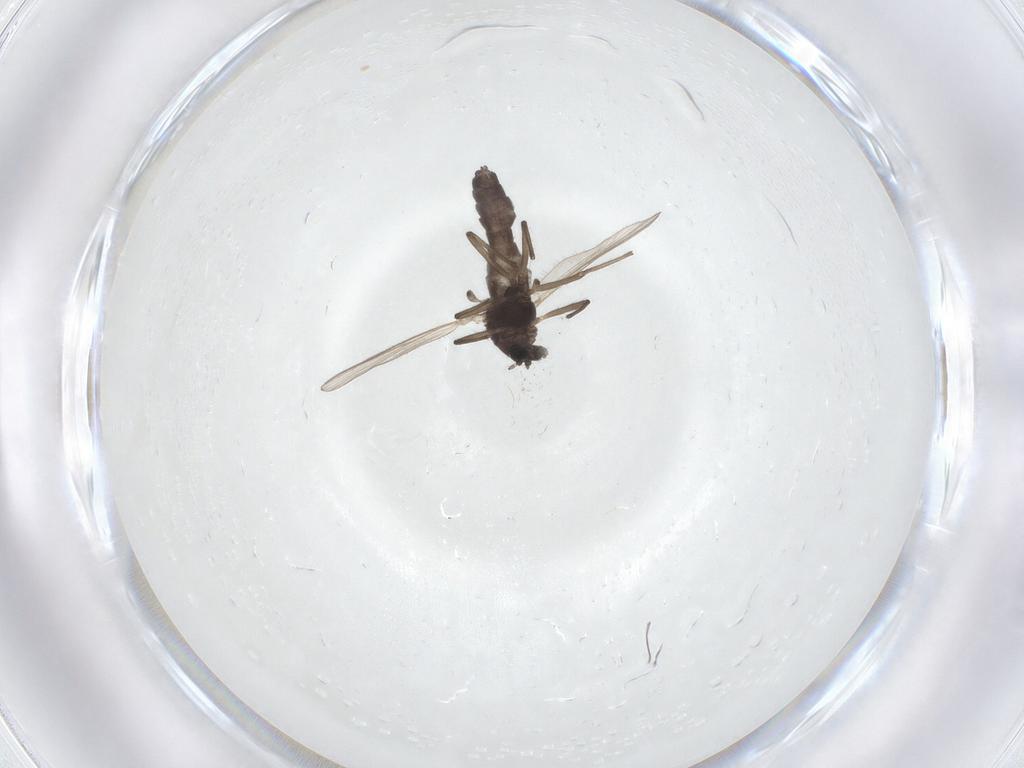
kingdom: Animalia
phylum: Arthropoda
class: Insecta
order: Diptera
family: Chironomidae
